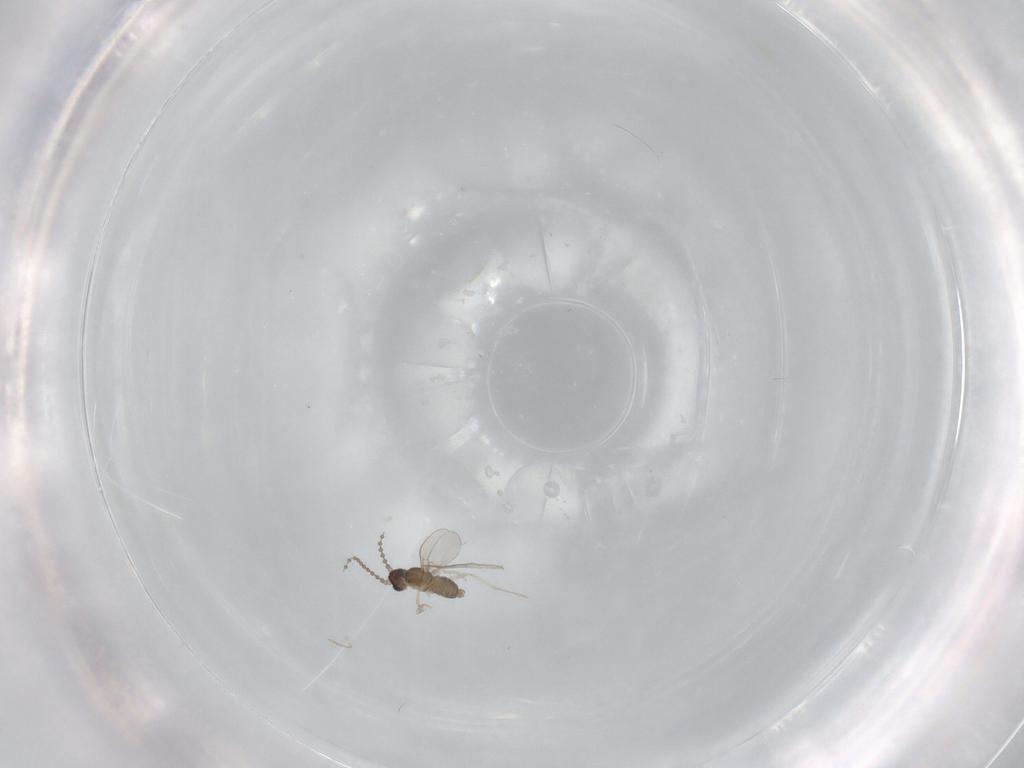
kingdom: Animalia
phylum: Arthropoda
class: Insecta
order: Diptera
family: Cecidomyiidae
